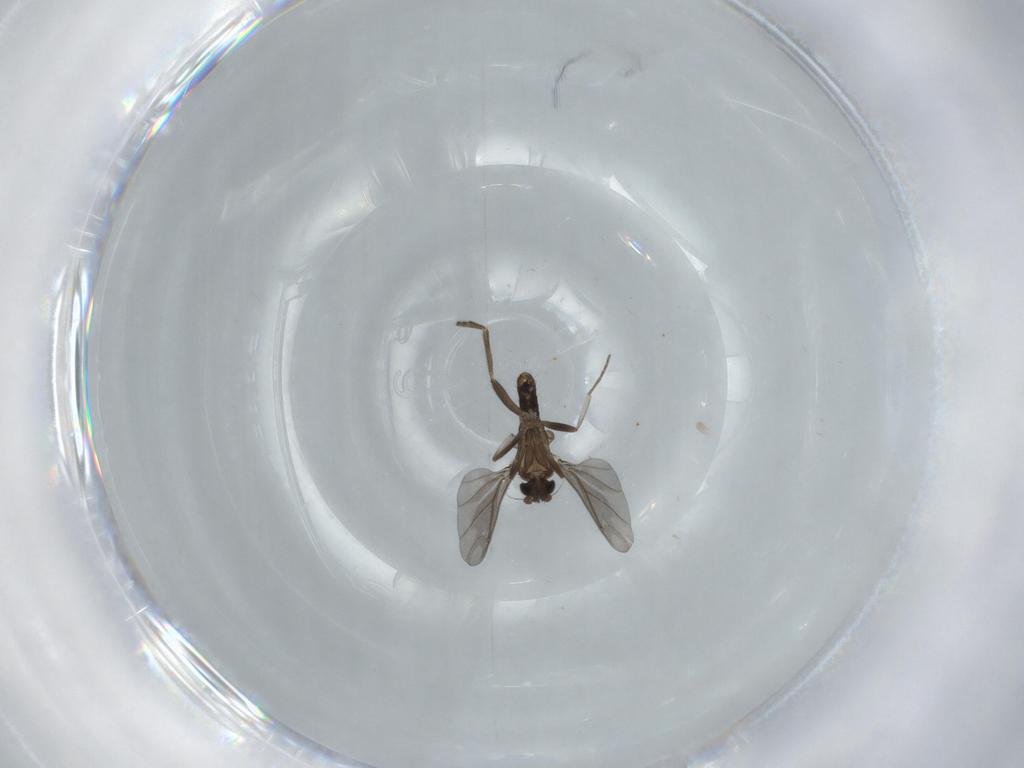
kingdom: Animalia
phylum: Arthropoda
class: Insecta
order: Diptera
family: Phoridae
